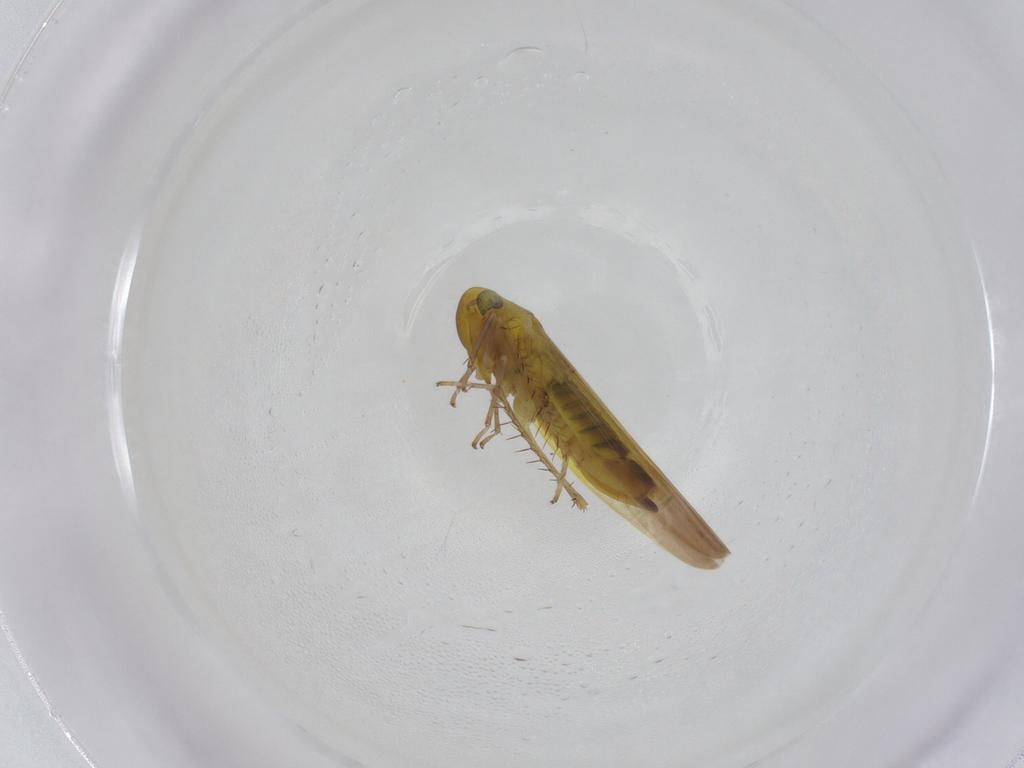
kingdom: Animalia
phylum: Arthropoda
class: Insecta
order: Hemiptera
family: Cicadellidae
